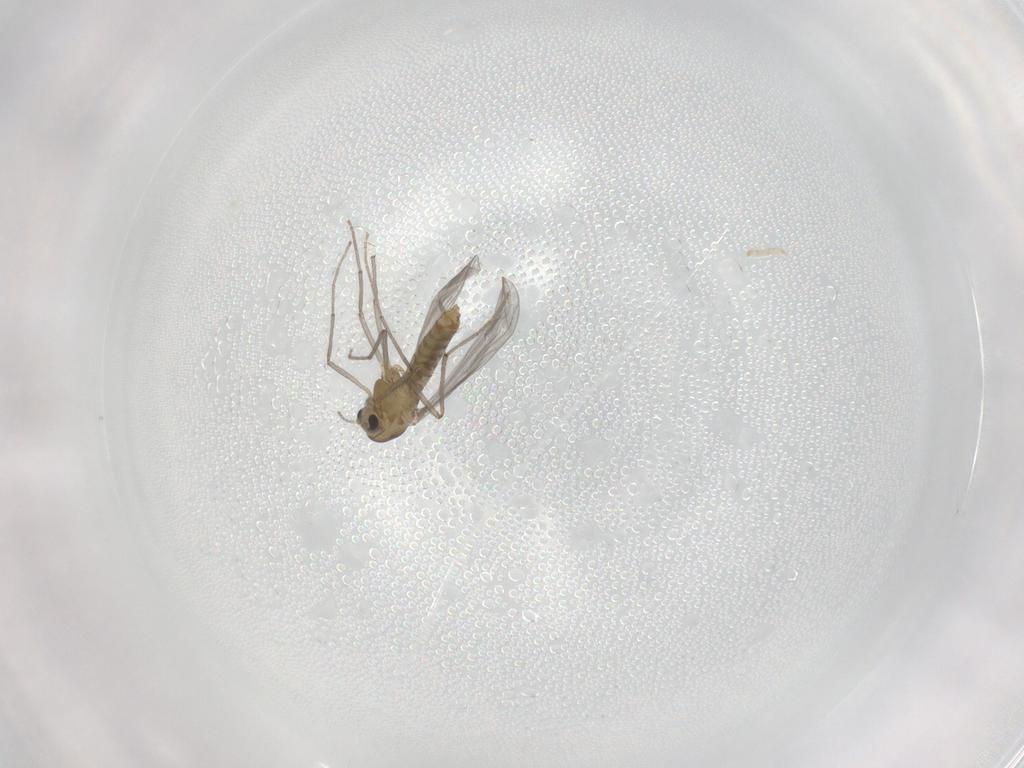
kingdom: Animalia
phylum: Arthropoda
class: Insecta
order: Diptera
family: Chironomidae
